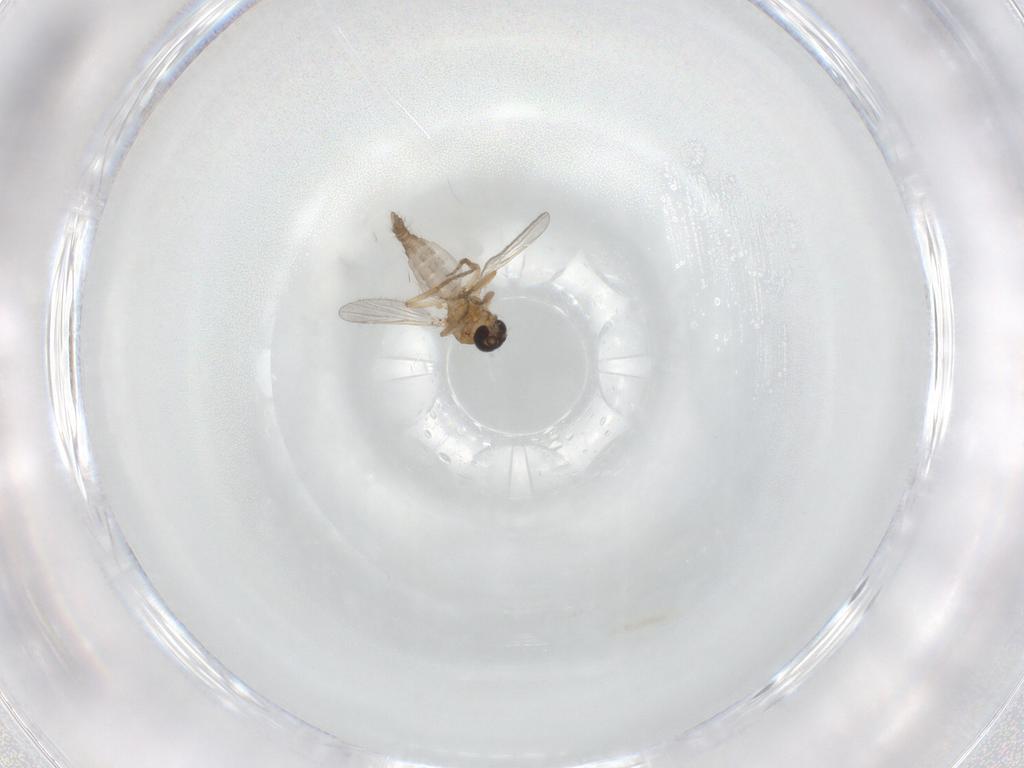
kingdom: Animalia
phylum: Arthropoda
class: Insecta
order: Diptera
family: Ceratopogonidae
